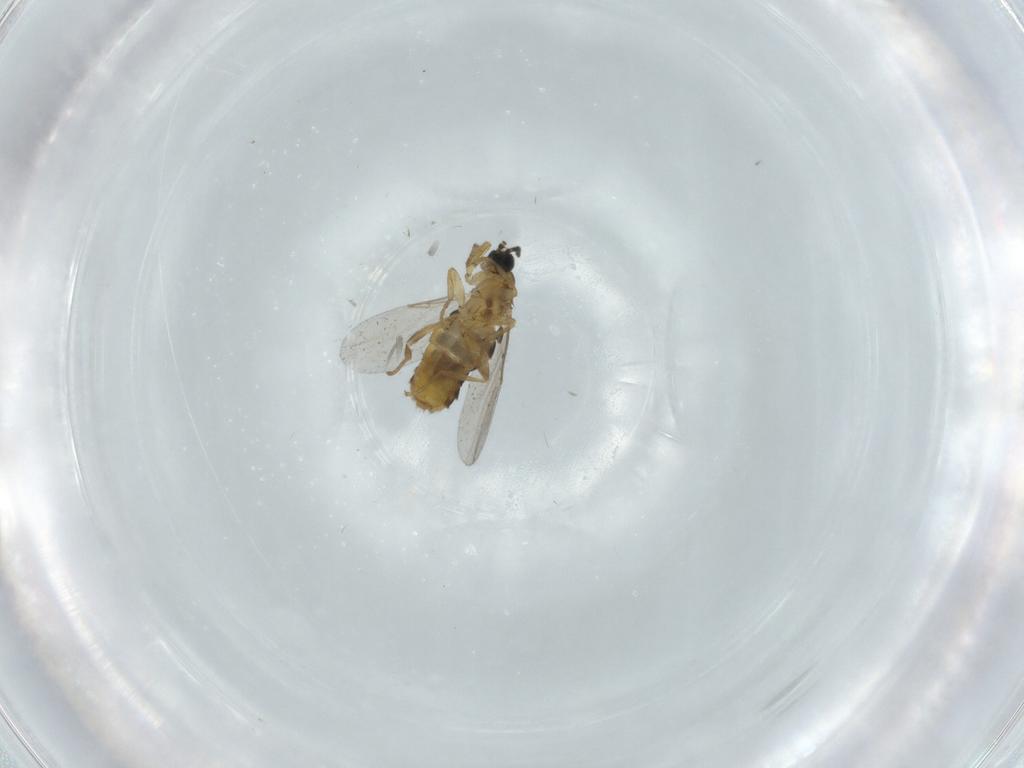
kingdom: Animalia
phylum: Arthropoda
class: Insecta
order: Diptera
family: Scatopsidae
